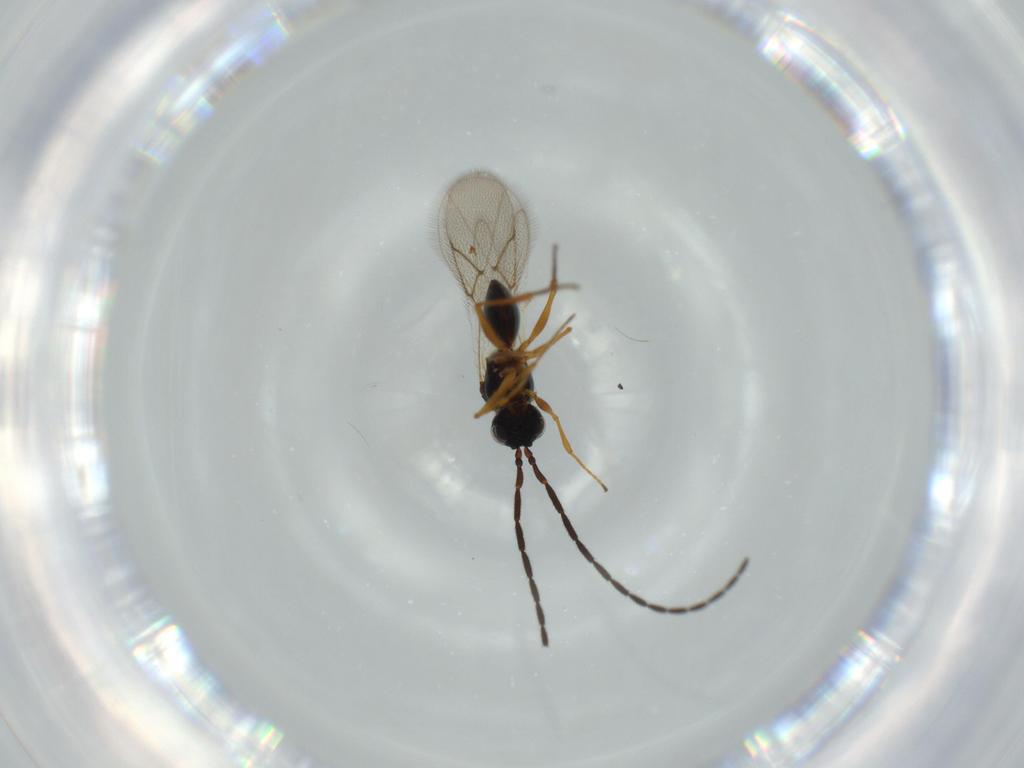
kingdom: Animalia
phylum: Arthropoda
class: Insecta
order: Hymenoptera
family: Figitidae
